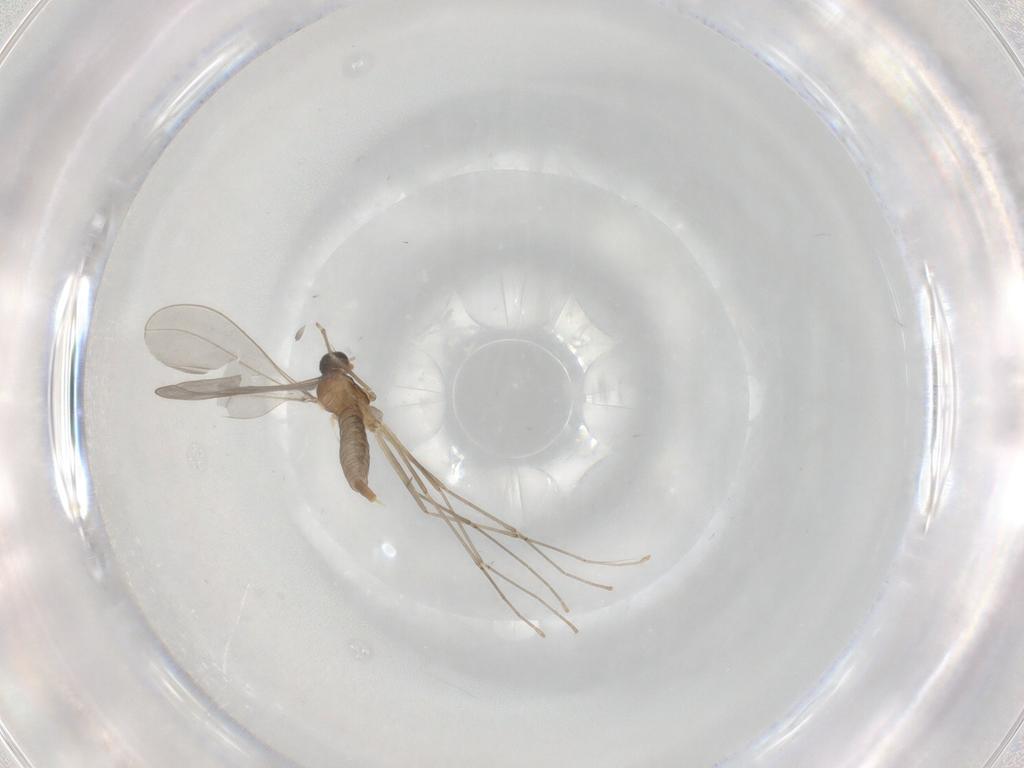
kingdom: Animalia
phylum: Arthropoda
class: Insecta
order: Diptera
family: Cecidomyiidae
